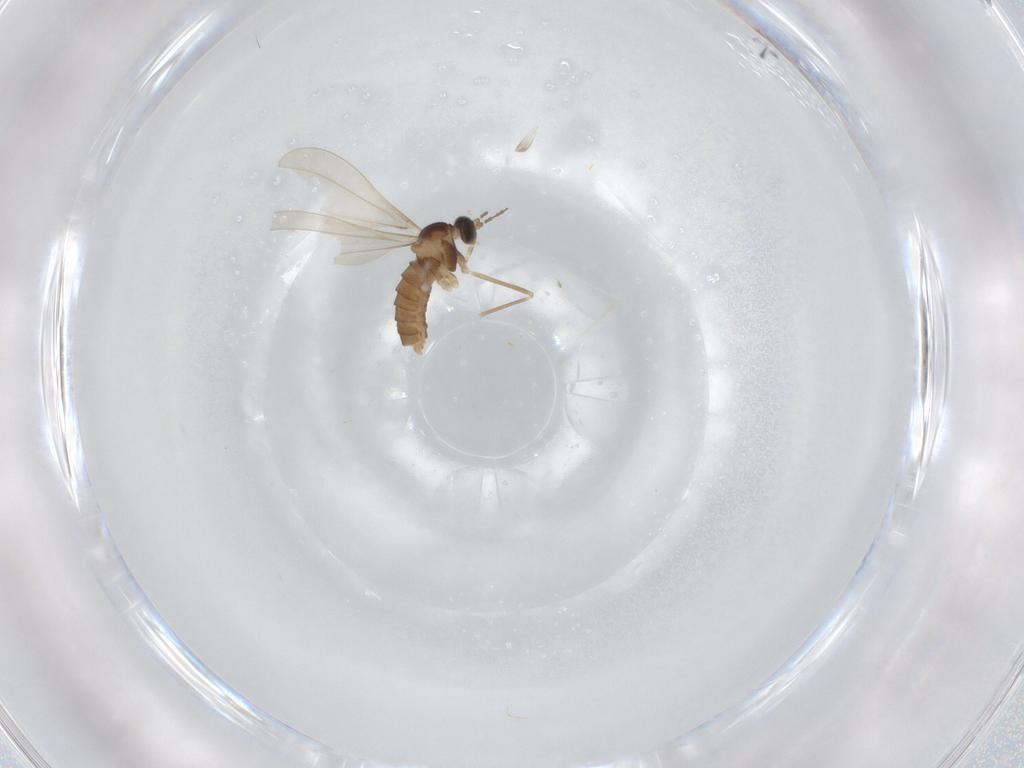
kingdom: Animalia
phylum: Arthropoda
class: Insecta
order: Diptera
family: Cecidomyiidae
